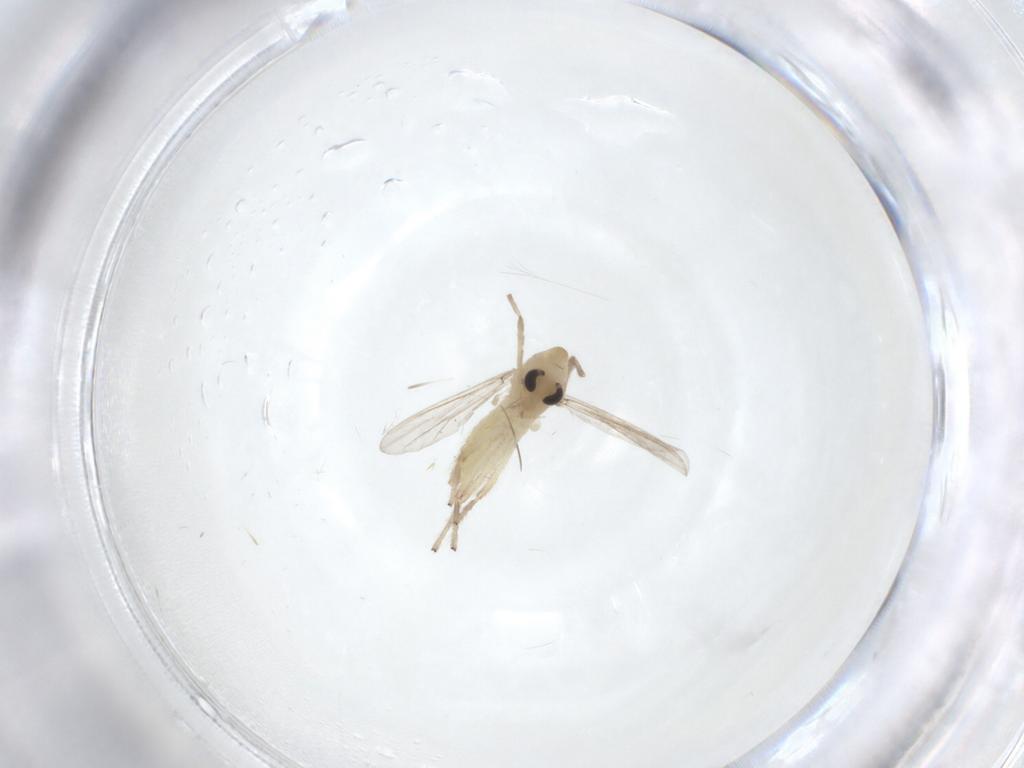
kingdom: Animalia
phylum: Arthropoda
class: Insecta
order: Diptera
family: Chironomidae
